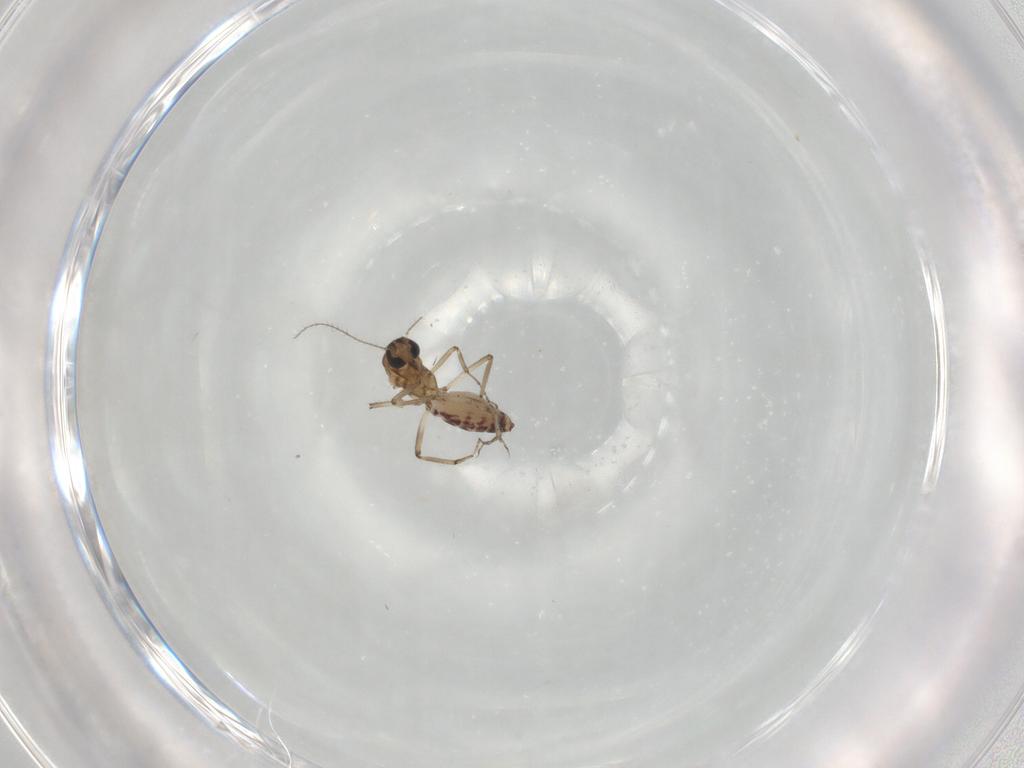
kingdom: Animalia
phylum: Arthropoda
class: Insecta
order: Diptera
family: Ceratopogonidae
